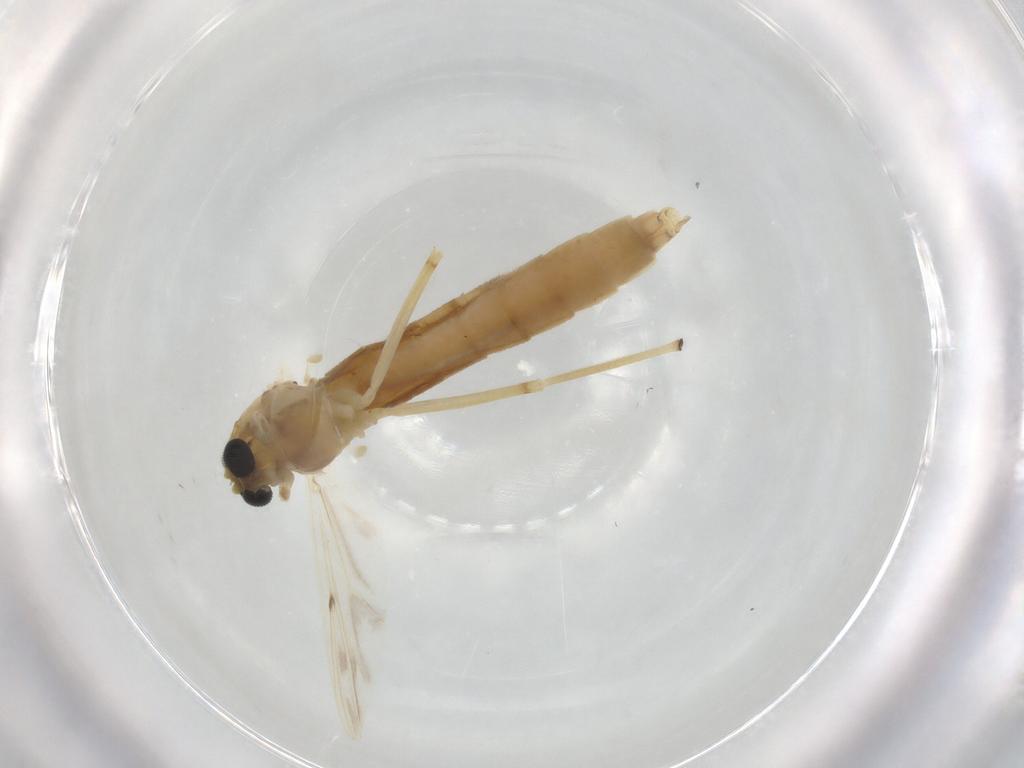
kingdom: Animalia
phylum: Arthropoda
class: Insecta
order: Diptera
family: Chironomidae
